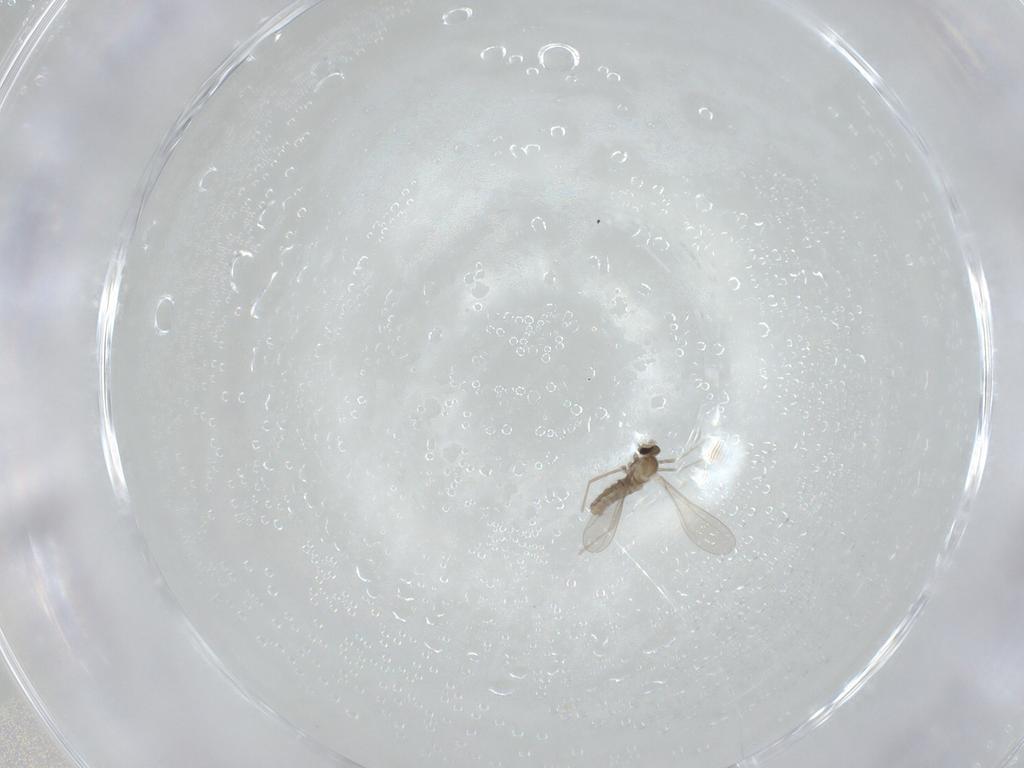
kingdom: Animalia
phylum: Arthropoda
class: Insecta
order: Diptera
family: Cecidomyiidae
